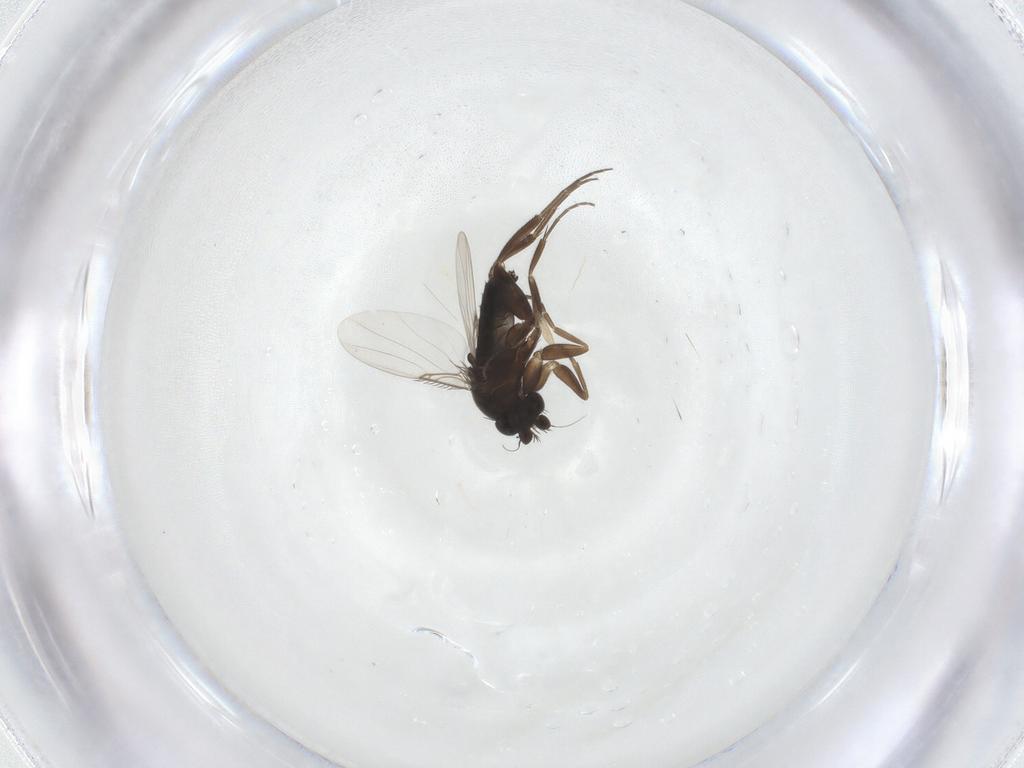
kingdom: Animalia
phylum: Arthropoda
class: Insecta
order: Diptera
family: Phoridae
